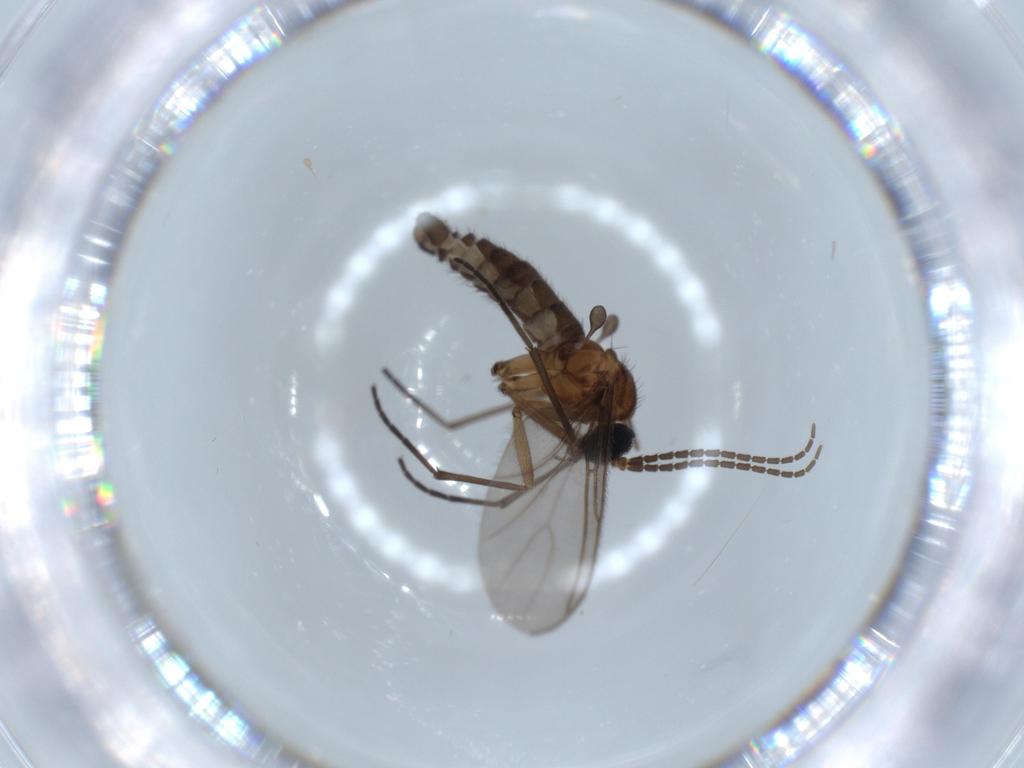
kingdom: Animalia
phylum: Arthropoda
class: Insecta
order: Diptera
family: Sciaridae
